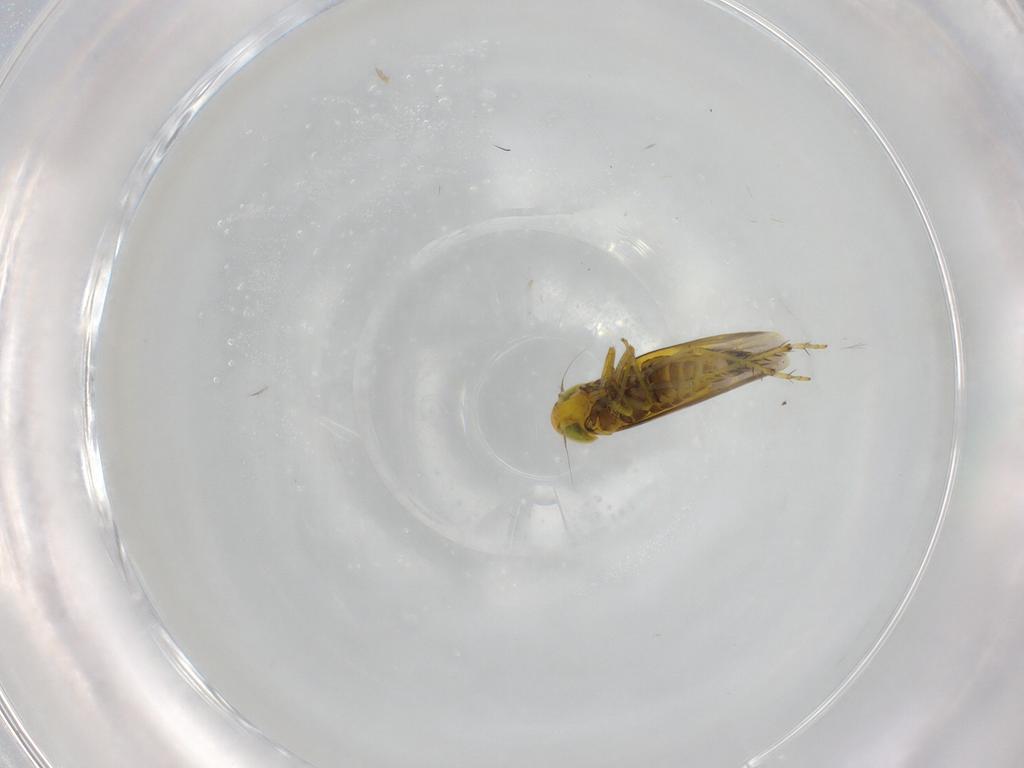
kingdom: Animalia
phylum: Arthropoda
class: Insecta
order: Hemiptera
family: Cicadellidae
